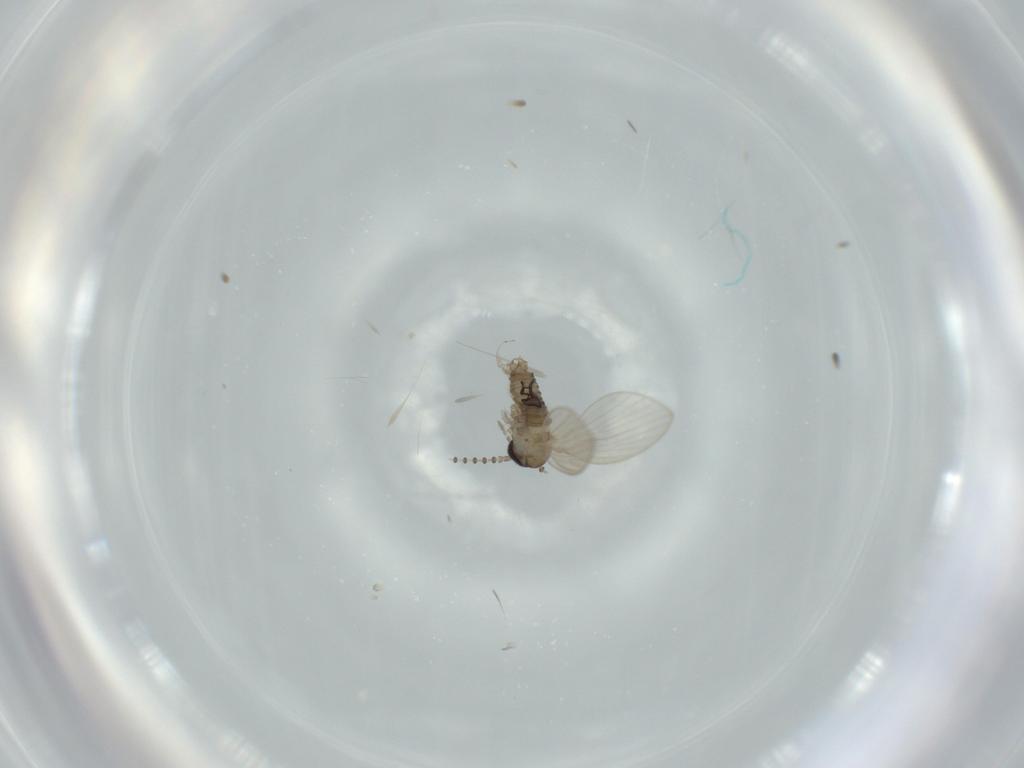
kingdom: Animalia
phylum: Arthropoda
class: Insecta
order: Diptera
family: Psychodidae
